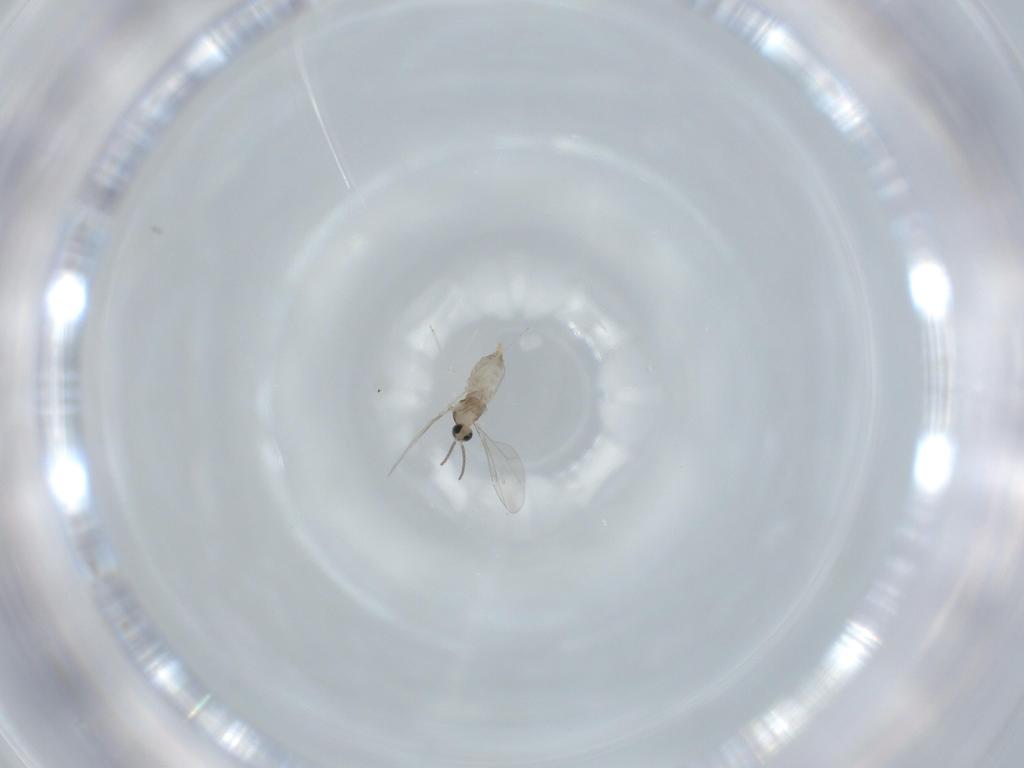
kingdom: Animalia
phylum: Arthropoda
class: Insecta
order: Diptera
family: Cecidomyiidae
